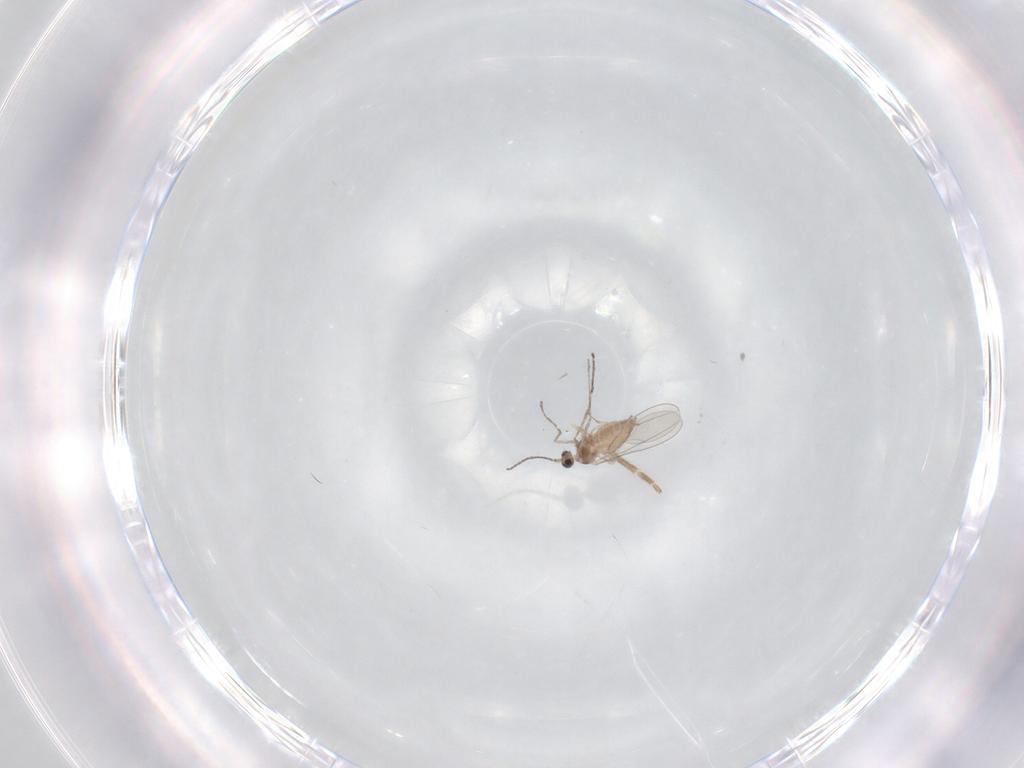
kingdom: Animalia
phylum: Arthropoda
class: Insecta
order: Diptera
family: Cecidomyiidae
